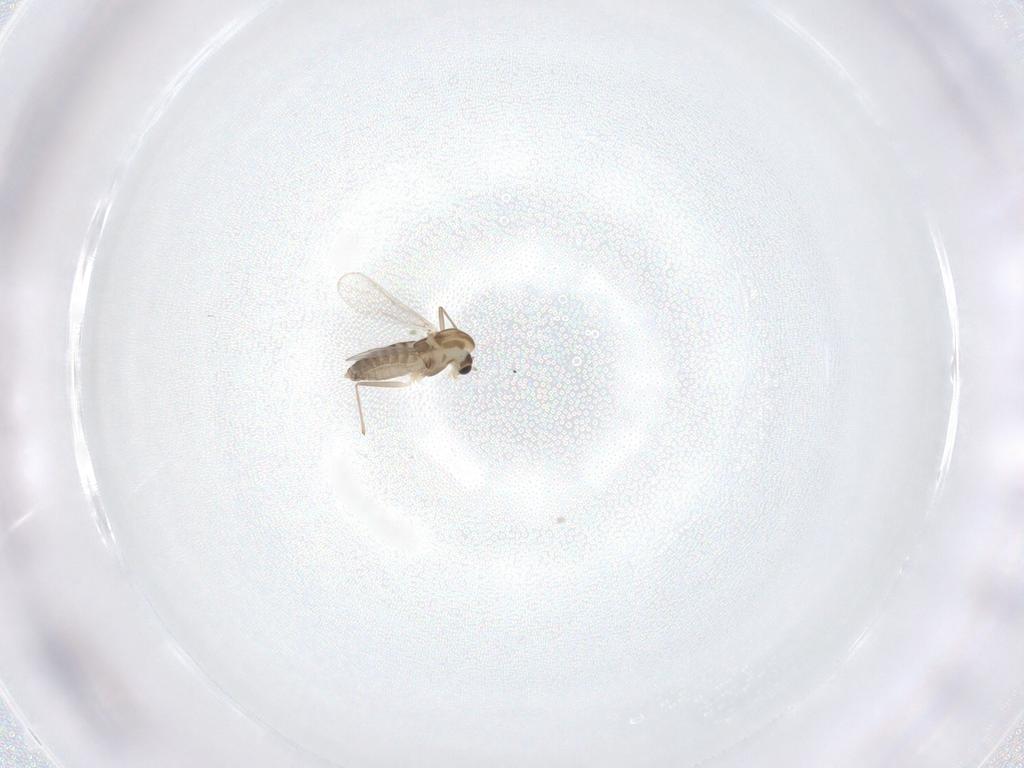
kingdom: Animalia
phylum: Arthropoda
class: Insecta
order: Diptera
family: Chironomidae
